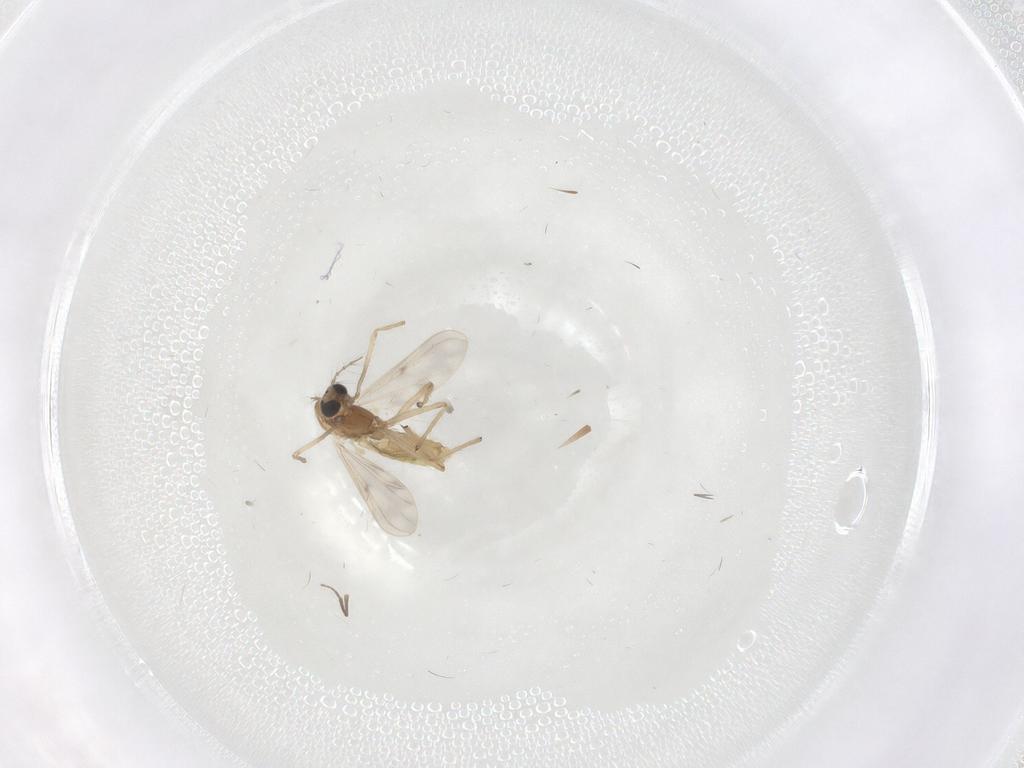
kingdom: Animalia
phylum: Arthropoda
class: Insecta
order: Diptera
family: Chironomidae
